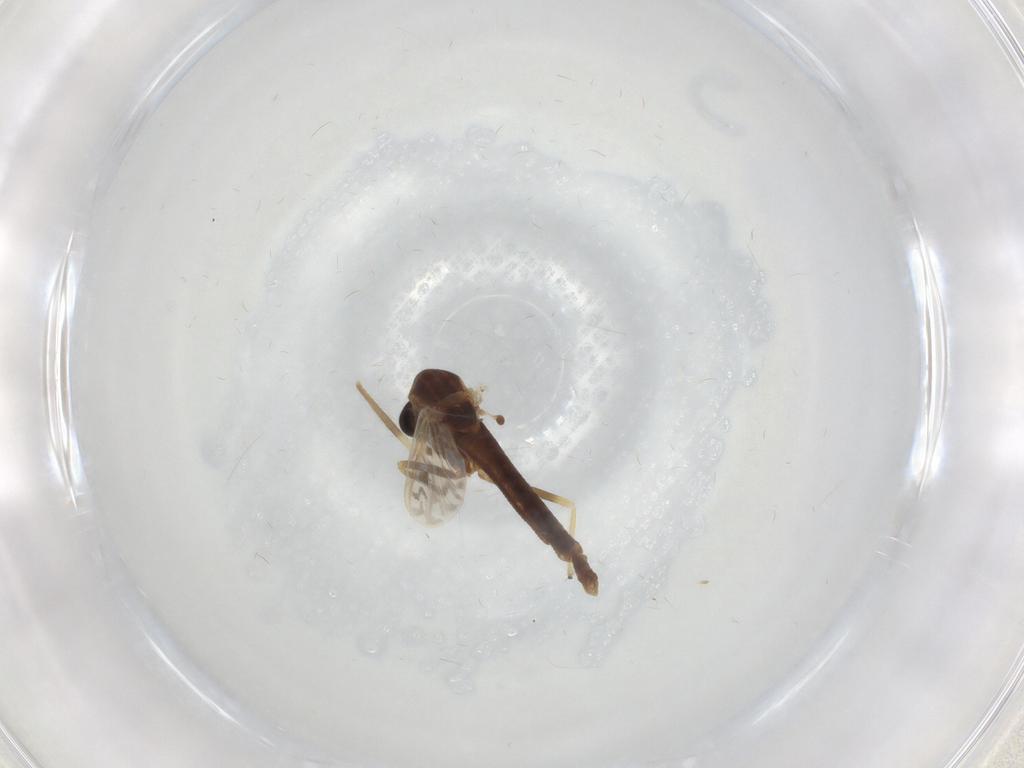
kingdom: Animalia
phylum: Arthropoda
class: Insecta
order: Diptera
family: Chironomidae
